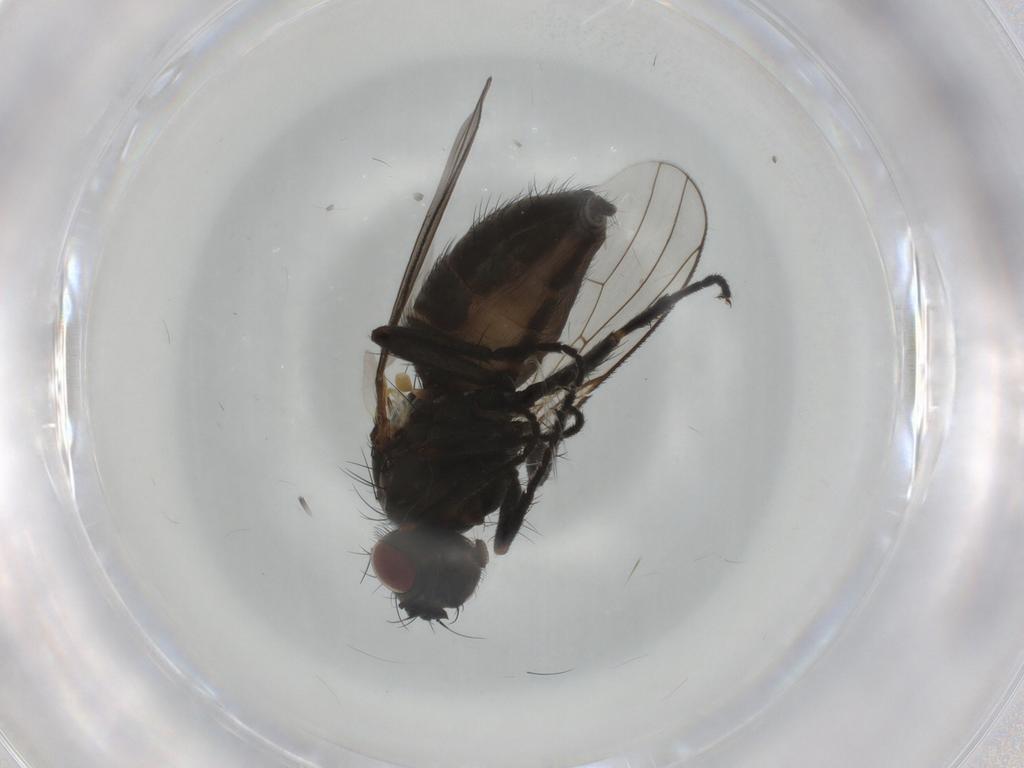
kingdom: Animalia
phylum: Arthropoda
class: Insecta
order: Diptera
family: Muscidae
